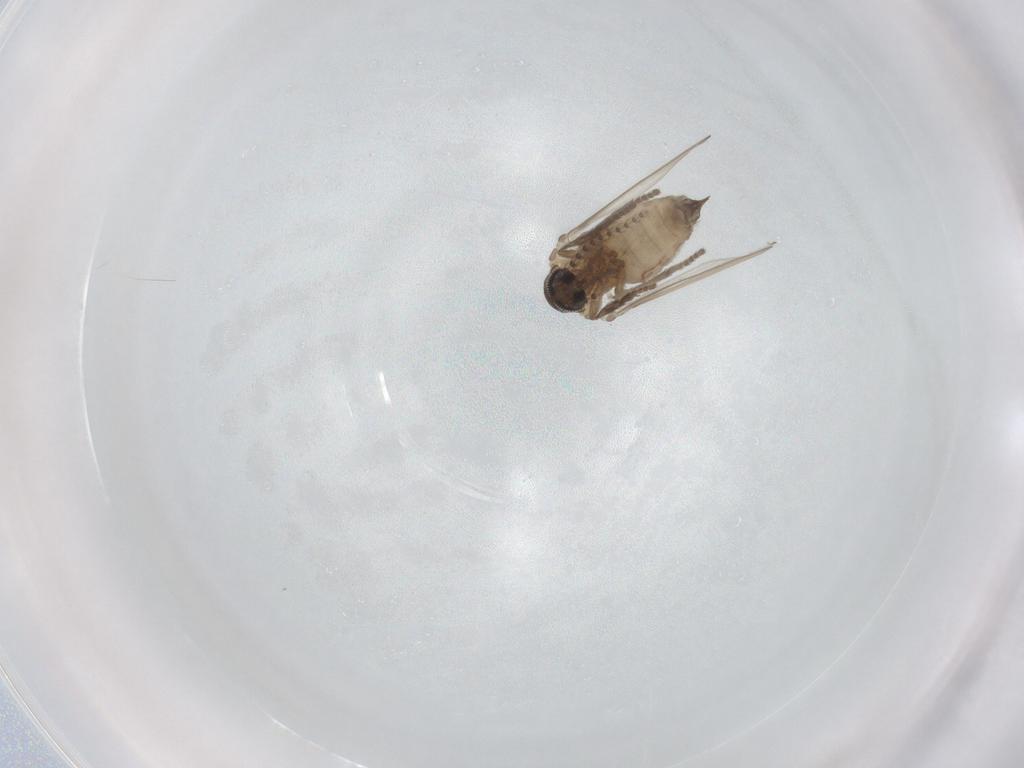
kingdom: Animalia
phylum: Arthropoda
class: Insecta
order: Diptera
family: Psychodidae
